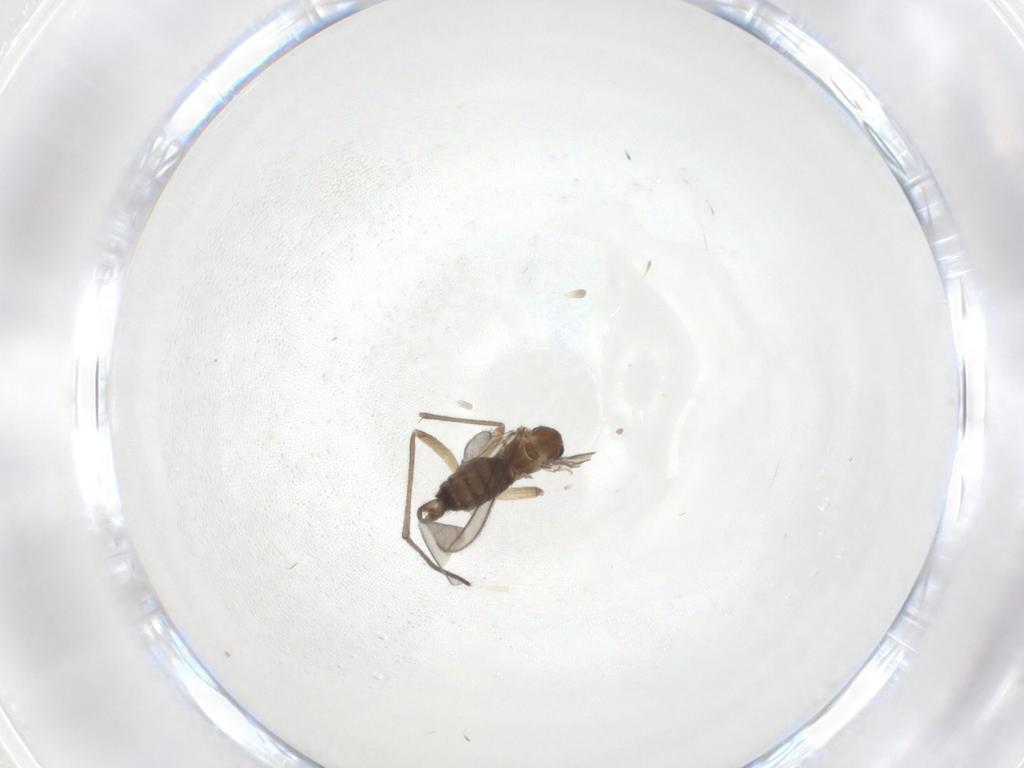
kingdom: Animalia
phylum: Arthropoda
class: Insecta
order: Diptera
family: Sciaridae
